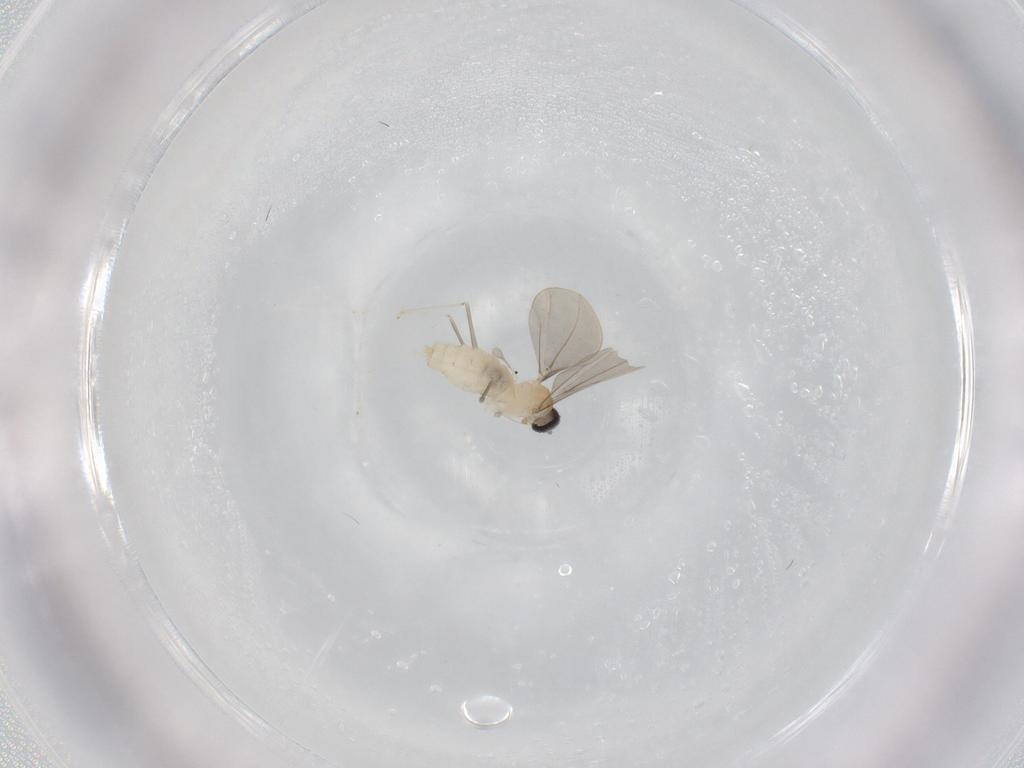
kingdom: Animalia
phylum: Arthropoda
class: Insecta
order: Diptera
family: Cecidomyiidae
